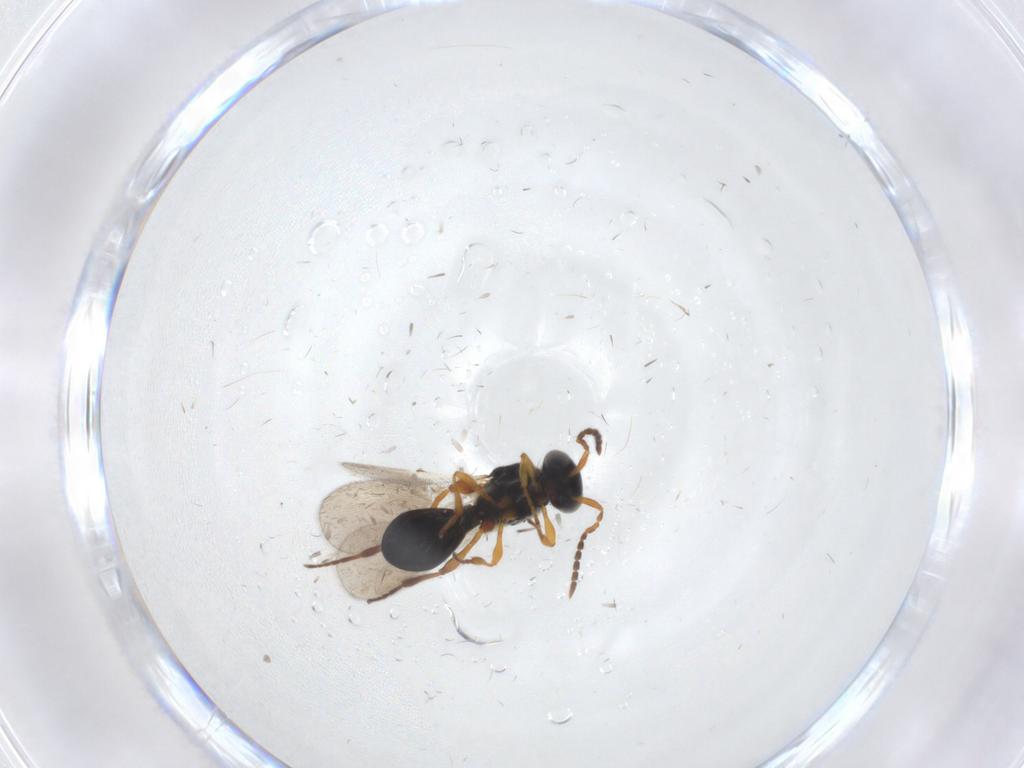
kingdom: Animalia
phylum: Arthropoda
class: Insecta
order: Hymenoptera
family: Platygastridae
